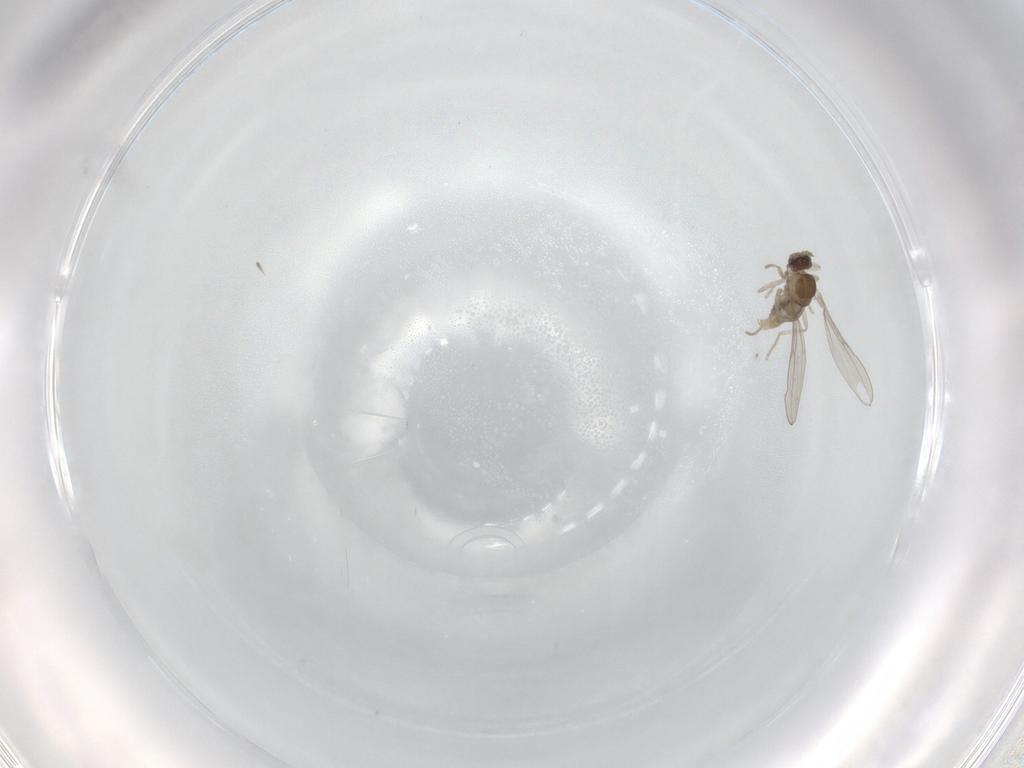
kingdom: Animalia
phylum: Arthropoda
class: Insecta
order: Diptera
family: Cecidomyiidae
